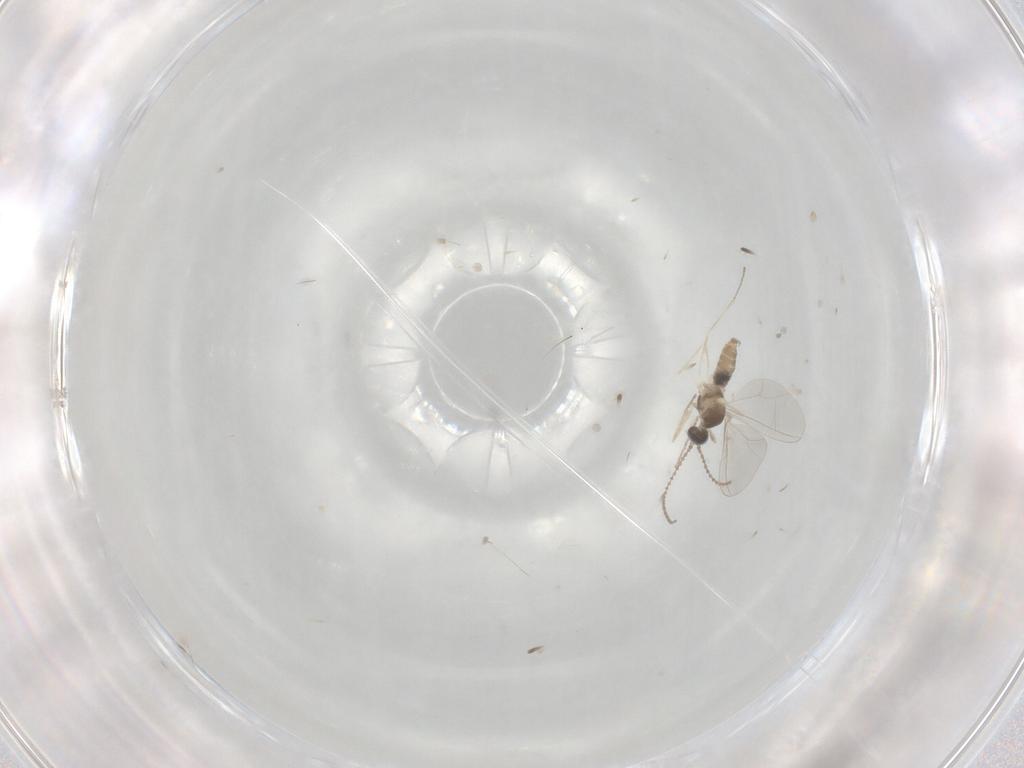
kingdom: Animalia
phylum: Arthropoda
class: Insecta
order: Diptera
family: Cecidomyiidae
